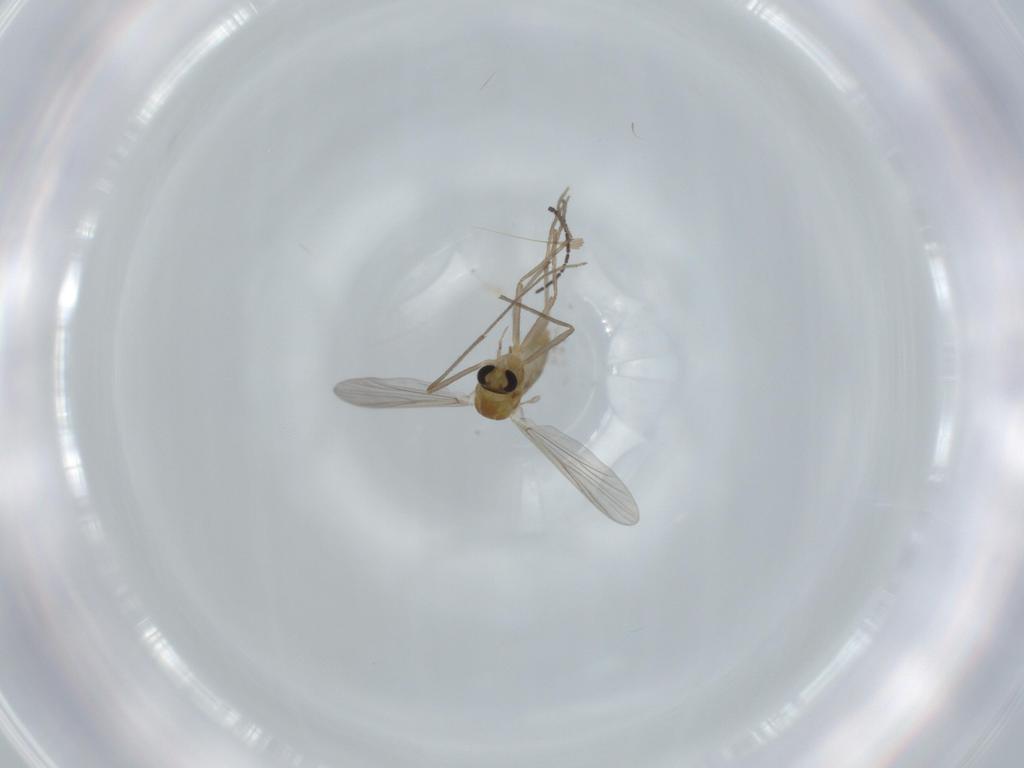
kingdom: Animalia
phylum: Arthropoda
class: Insecta
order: Diptera
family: Chironomidae
